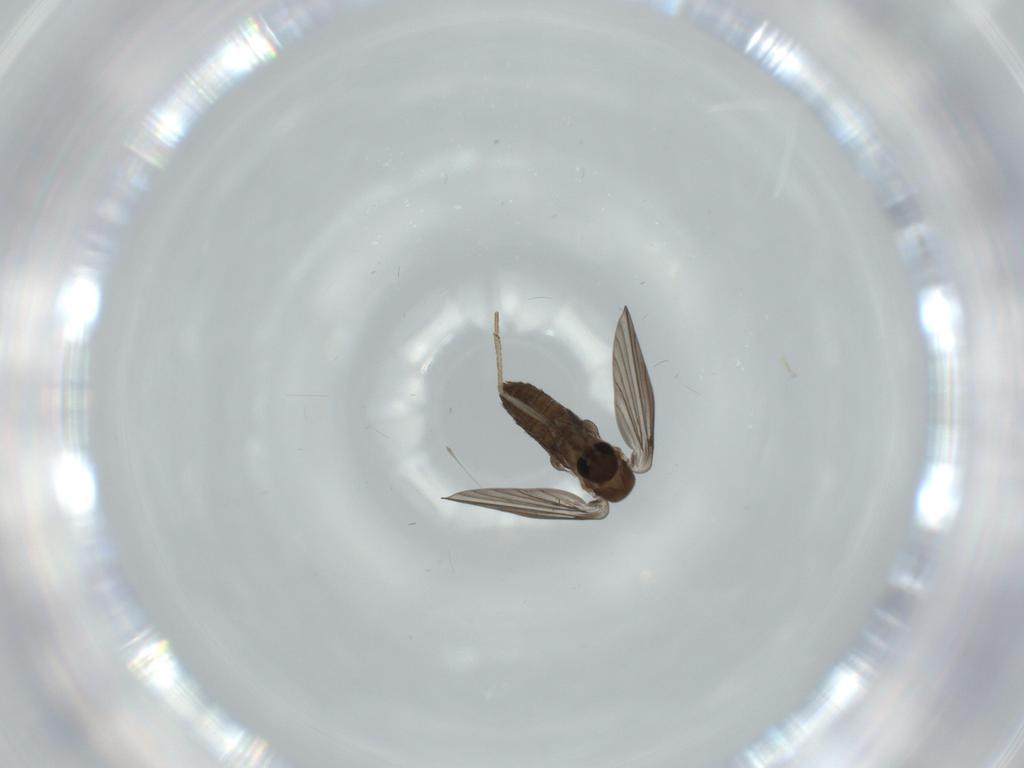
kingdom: Animalia
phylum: Arthropoda
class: Insecta
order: Diptera
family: Psychodidae
